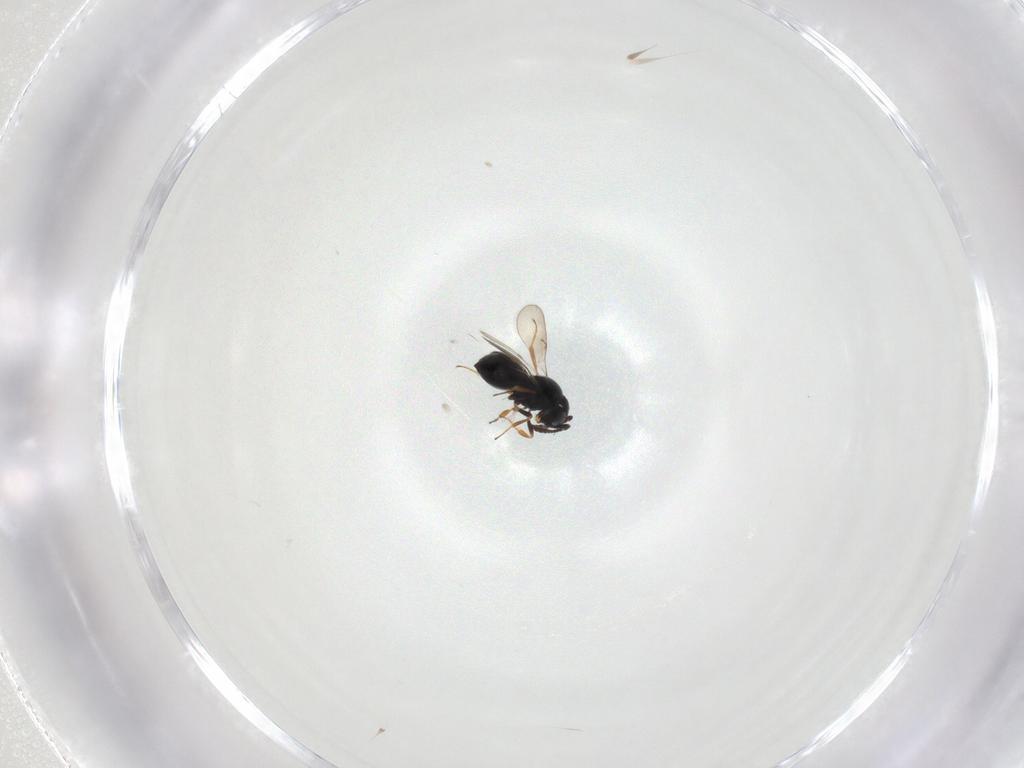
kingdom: Animalia
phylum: Arthropoda
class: Insecta
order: Hymenoptera
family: Scelionidae
